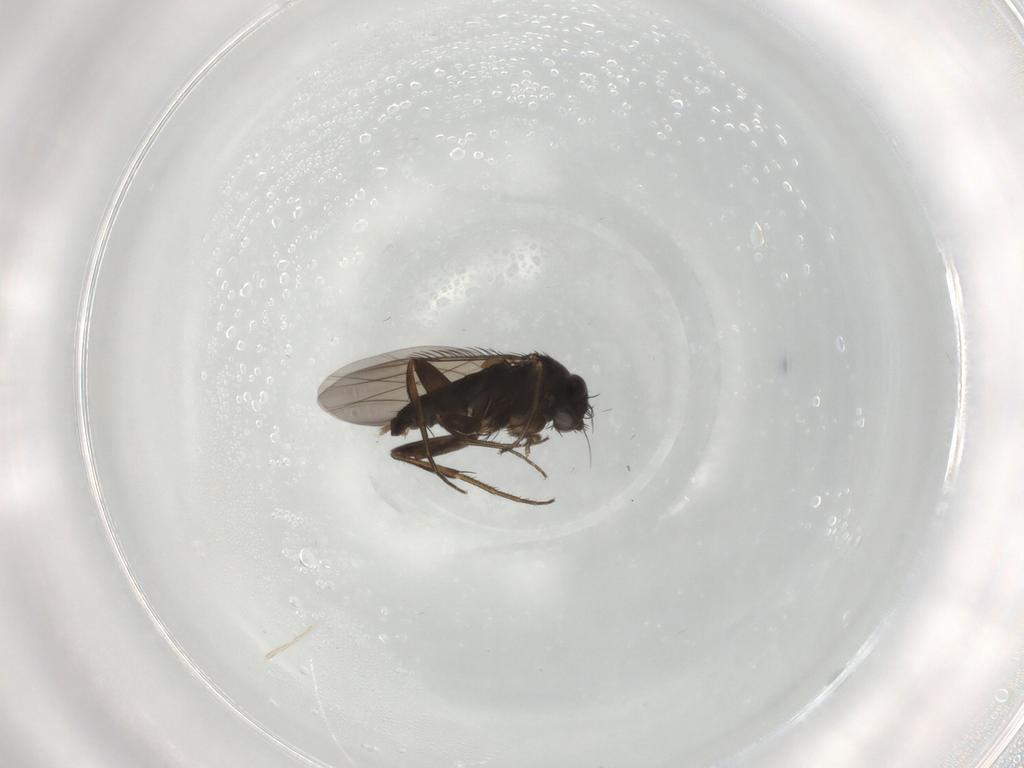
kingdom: Animalia
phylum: Arthropoda
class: Insecta
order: Diptera
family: Phoridae
